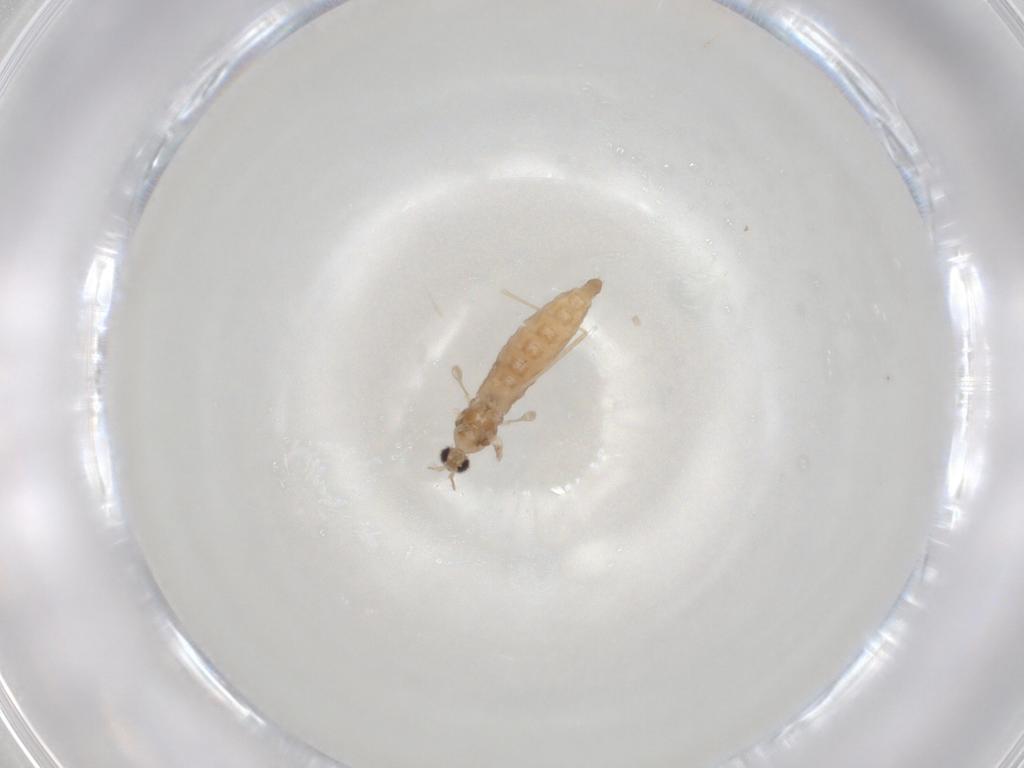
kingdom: Animalia
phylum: Arthropoda
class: Insecta
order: Diptera
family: Cecidomyiidae
